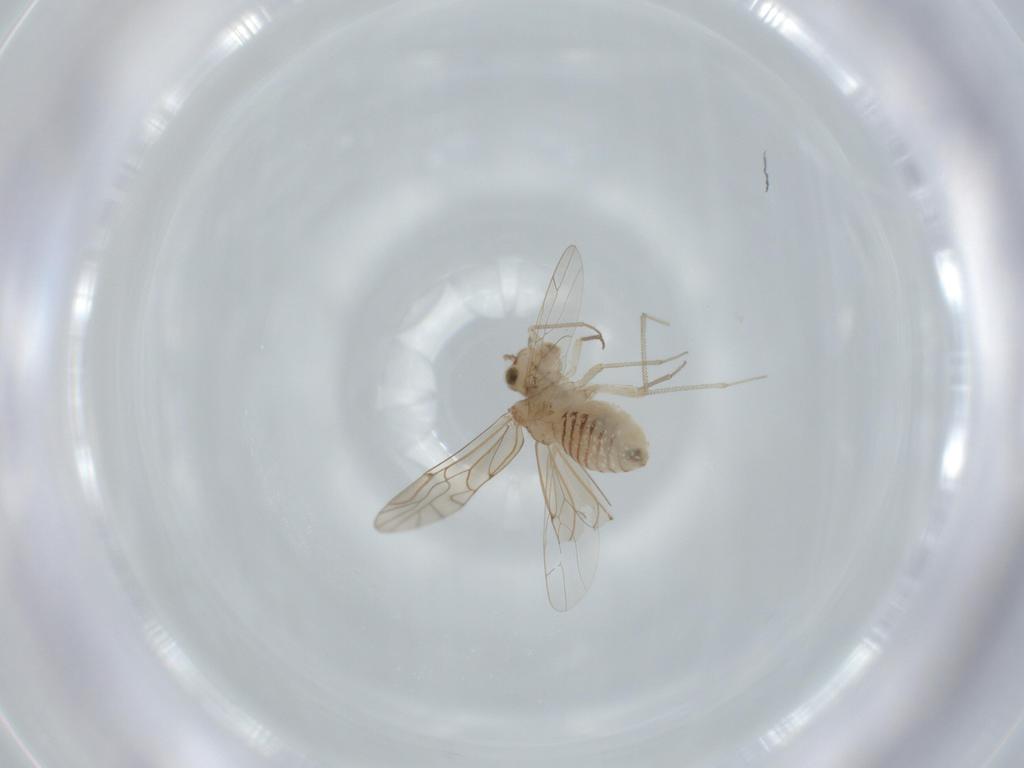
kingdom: Animalia
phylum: Arthropoda
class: Insecta
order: Psocodea
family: Lachesillidae
